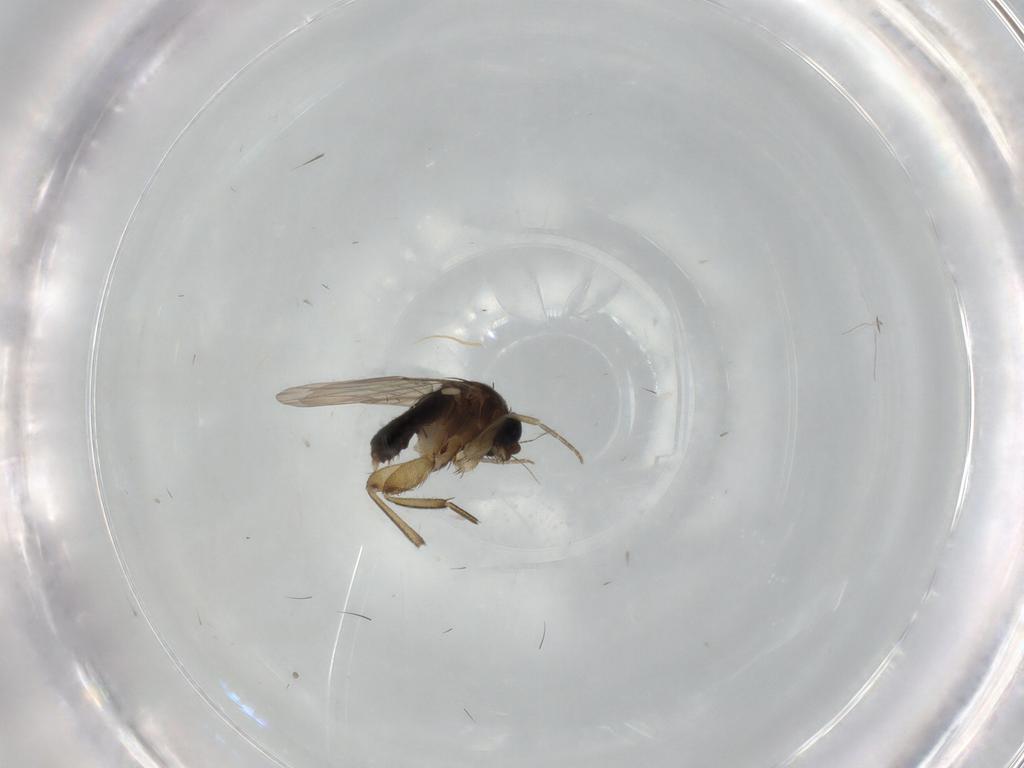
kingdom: Animalia
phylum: Arthropoda
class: Insecta
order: Diptera
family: Phoridae
